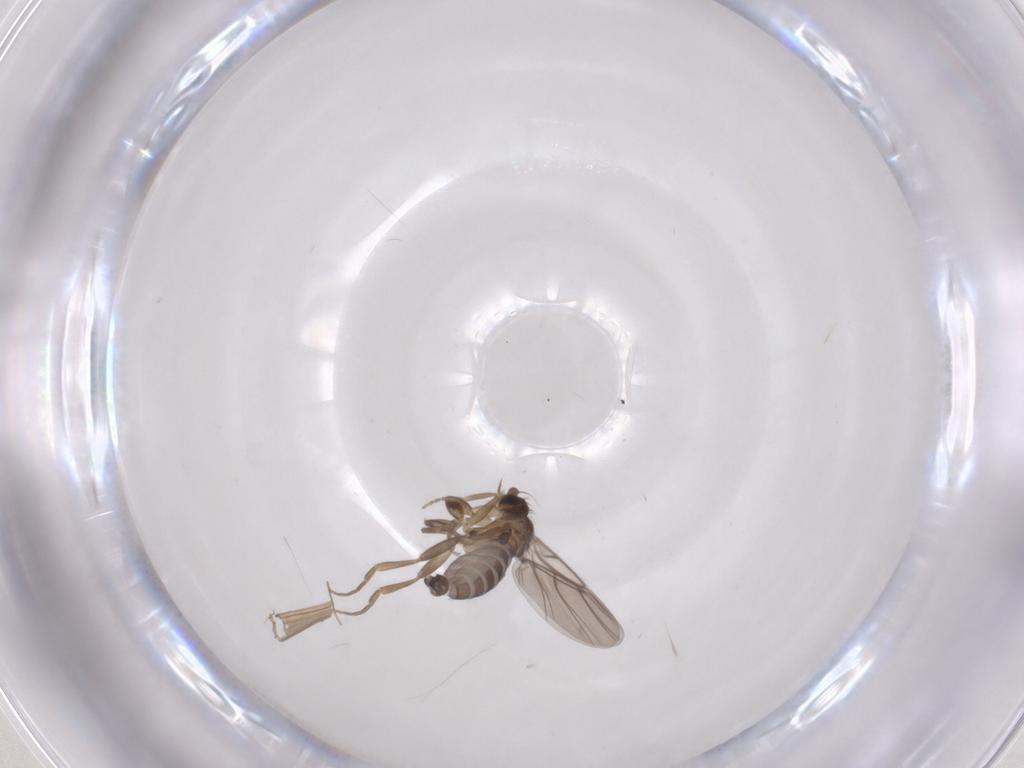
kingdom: Animalia
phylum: Arthropoda
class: Insecta
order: Diptera
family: Phoridae
